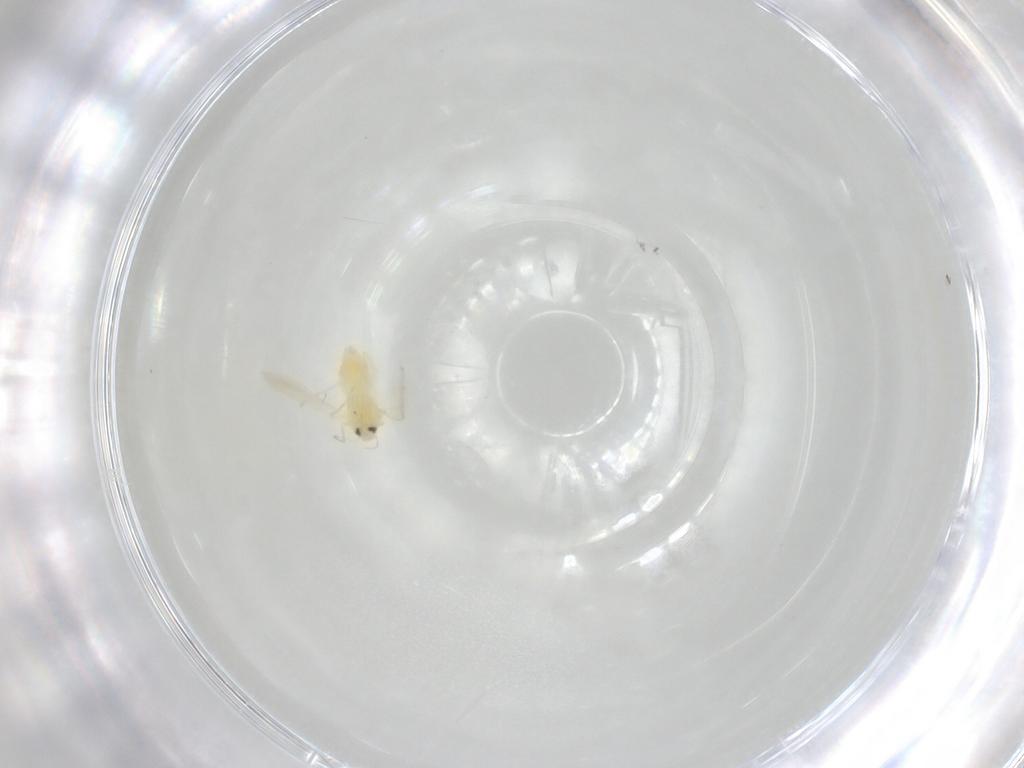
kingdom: Animalia
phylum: Arthropoda
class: Insecta
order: Hemiptera
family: Aleyrodidae
